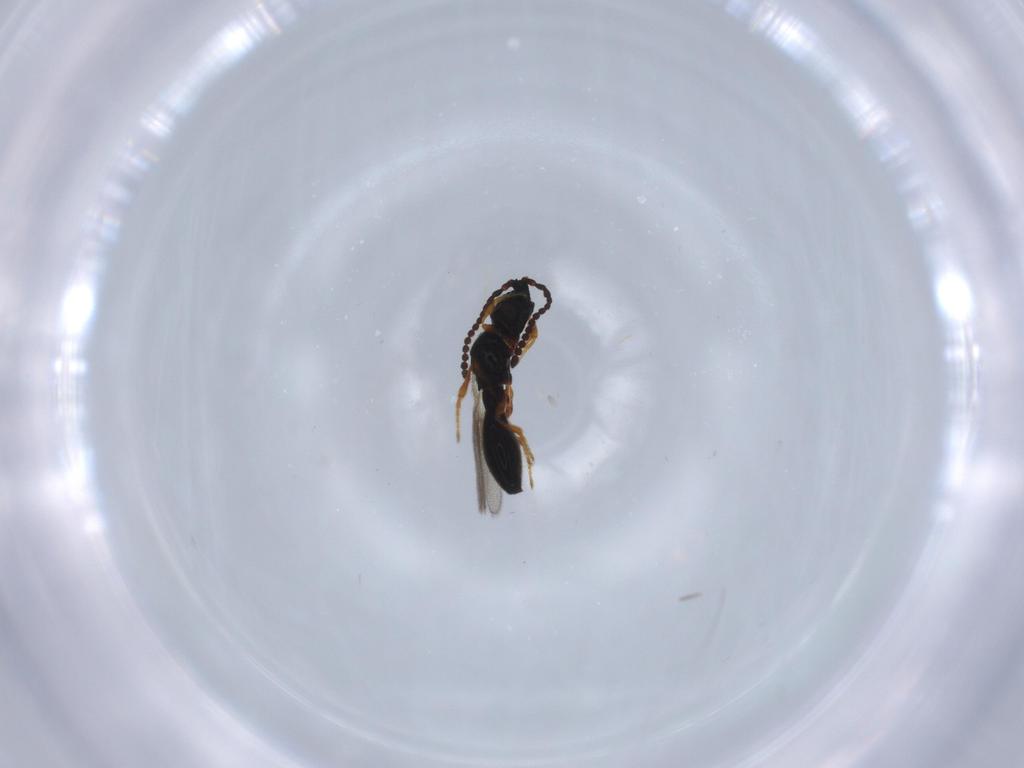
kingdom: Animalia
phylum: Arthropoda
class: Insecta
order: Hymenoptera
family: Diapriidae
